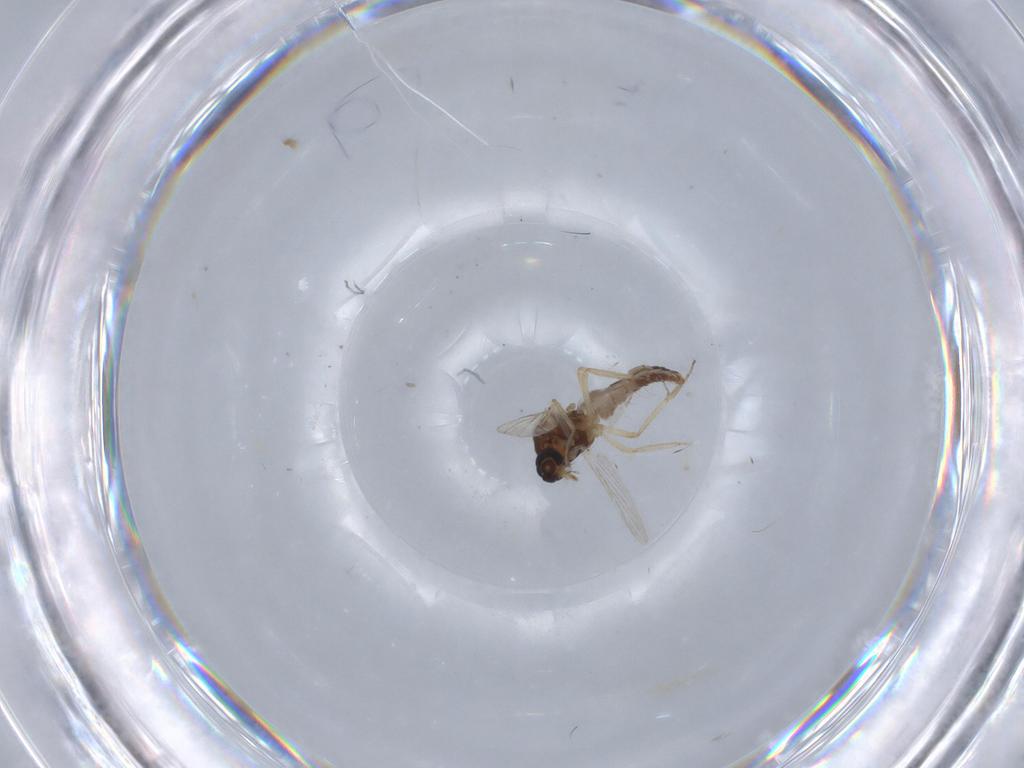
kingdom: Animalia
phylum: Arthropoda
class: Insecta
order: Diptera
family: Ceratopogonidae
